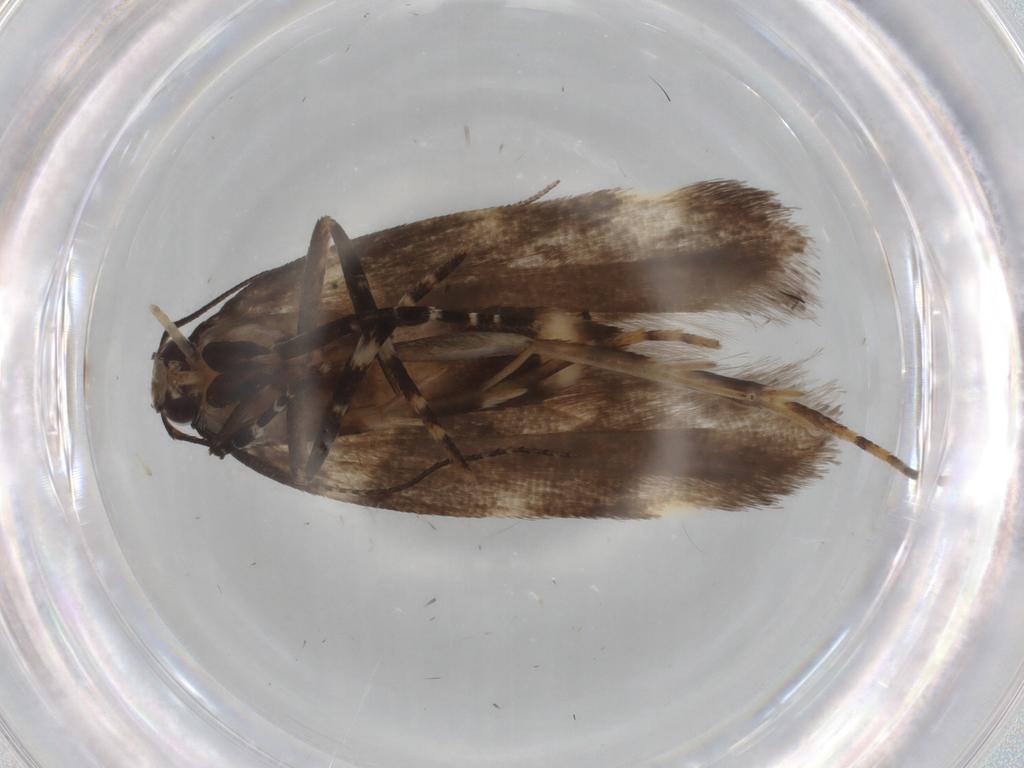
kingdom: Animalia
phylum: Arthropoda
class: Insecta
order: Lepidoptera
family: Gelechiidae
